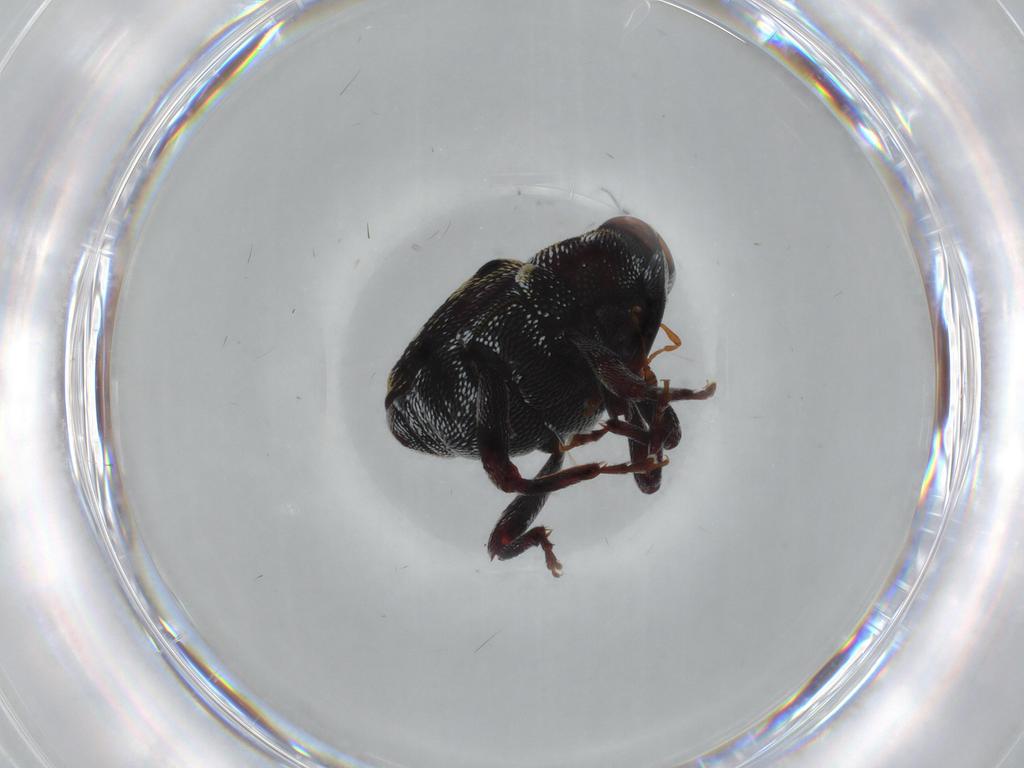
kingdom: Animalia
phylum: Arthropoda
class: Insecta
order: Coleoptera
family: Coccinellidae
